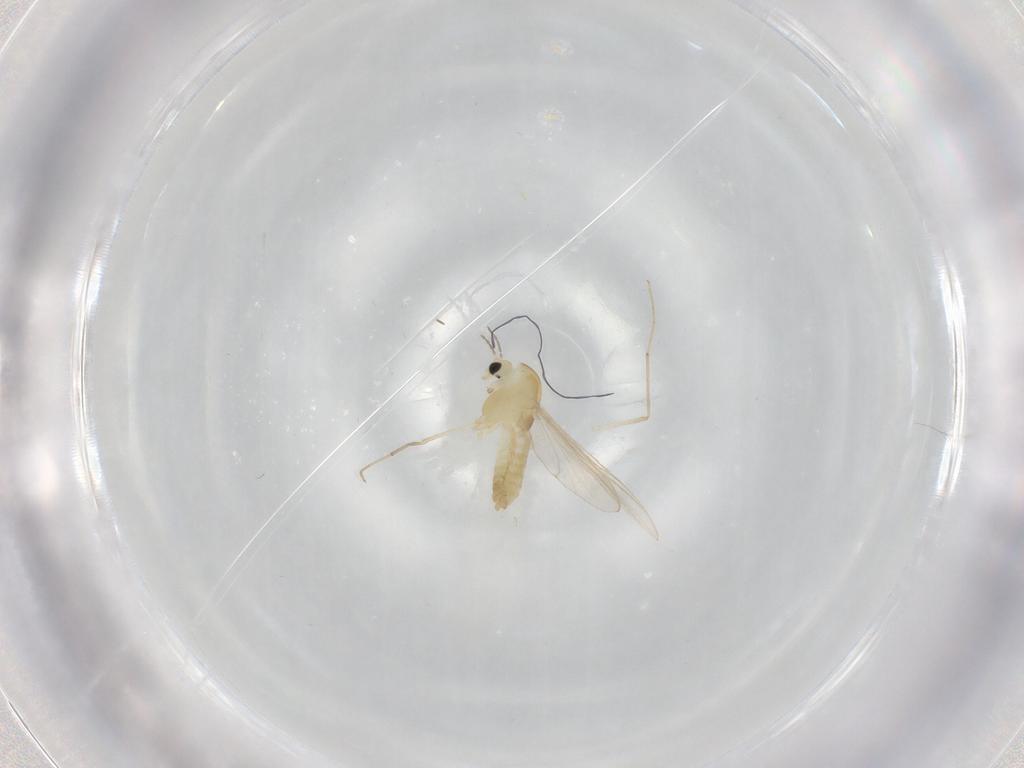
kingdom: Animalia
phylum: Arthropoda
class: Insecta
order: Diptera
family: Chironomidae
